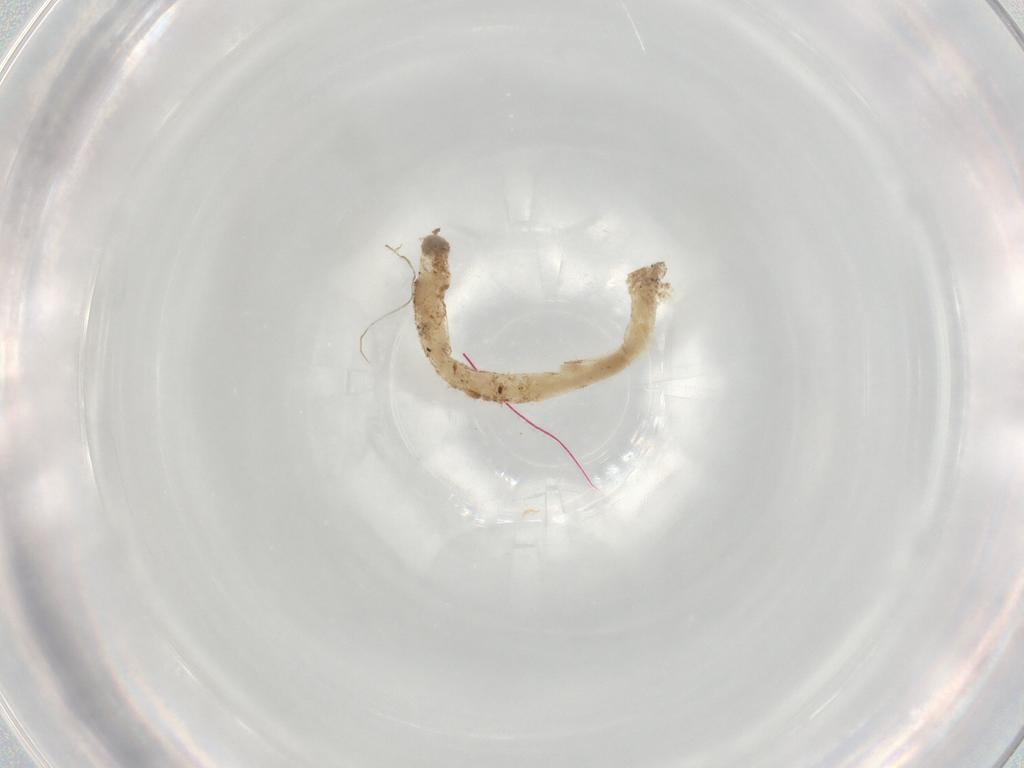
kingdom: Animalia
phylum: Arthropoda
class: Insecta
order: Diptera
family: Chironomidae
